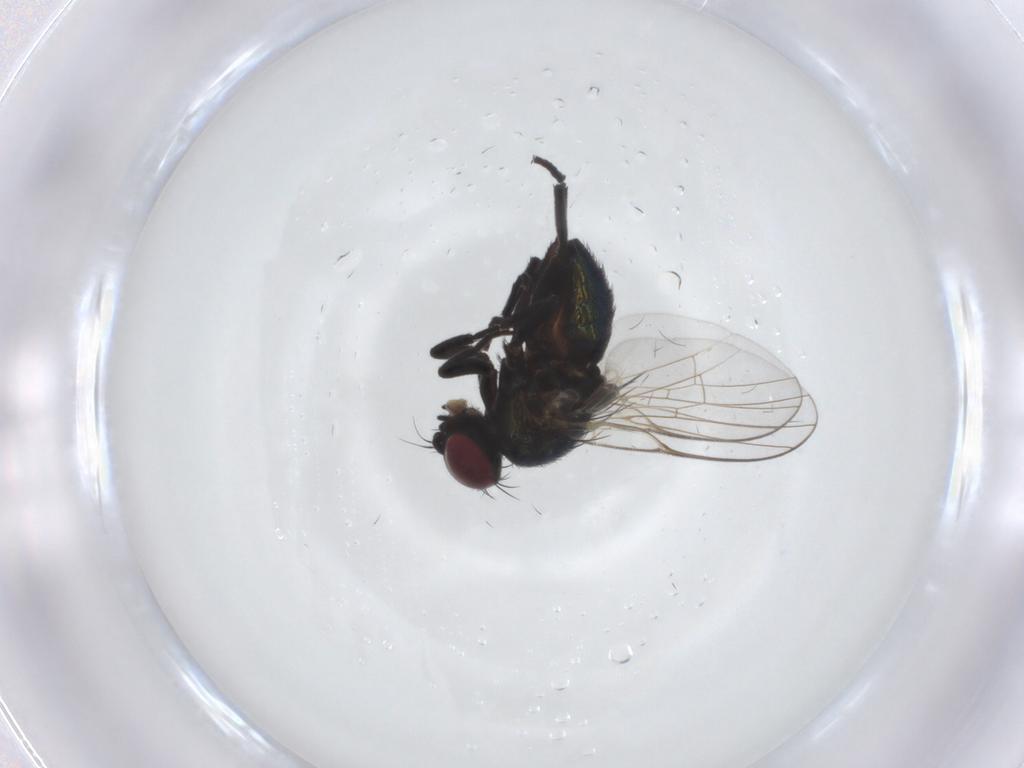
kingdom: Animalia
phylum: Arthropoda
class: Insecta
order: Diptera
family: Agromyzidae
